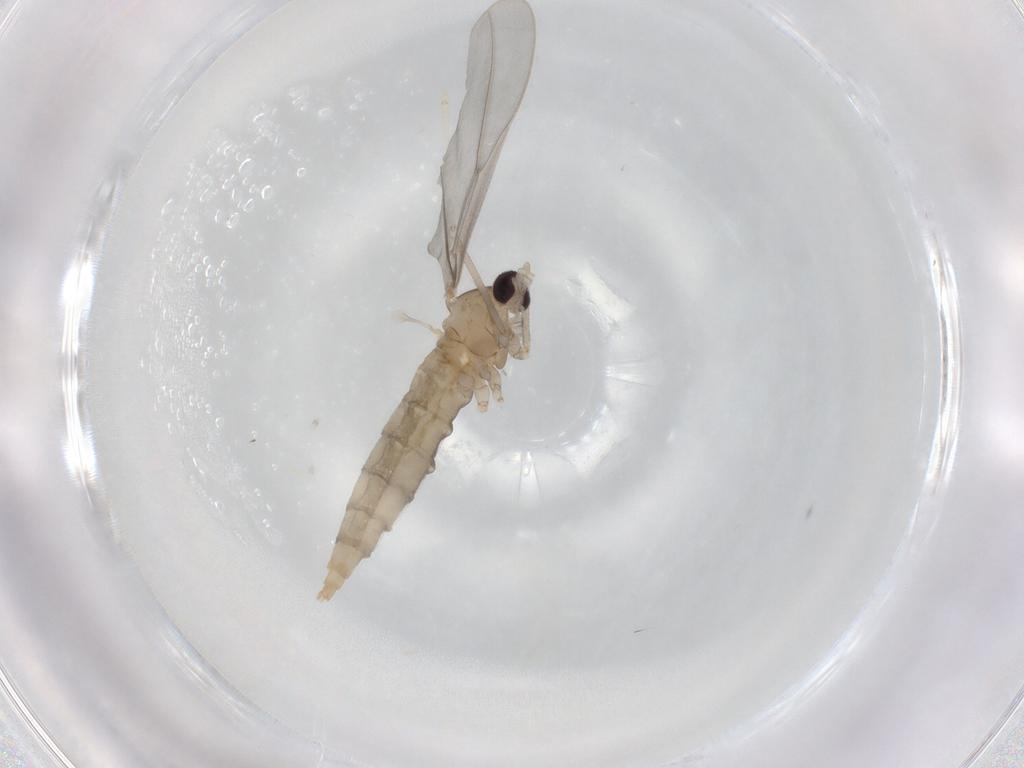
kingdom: Animalia
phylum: Arthropoda
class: Insecta
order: Diptera
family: Cecidomyiidae
